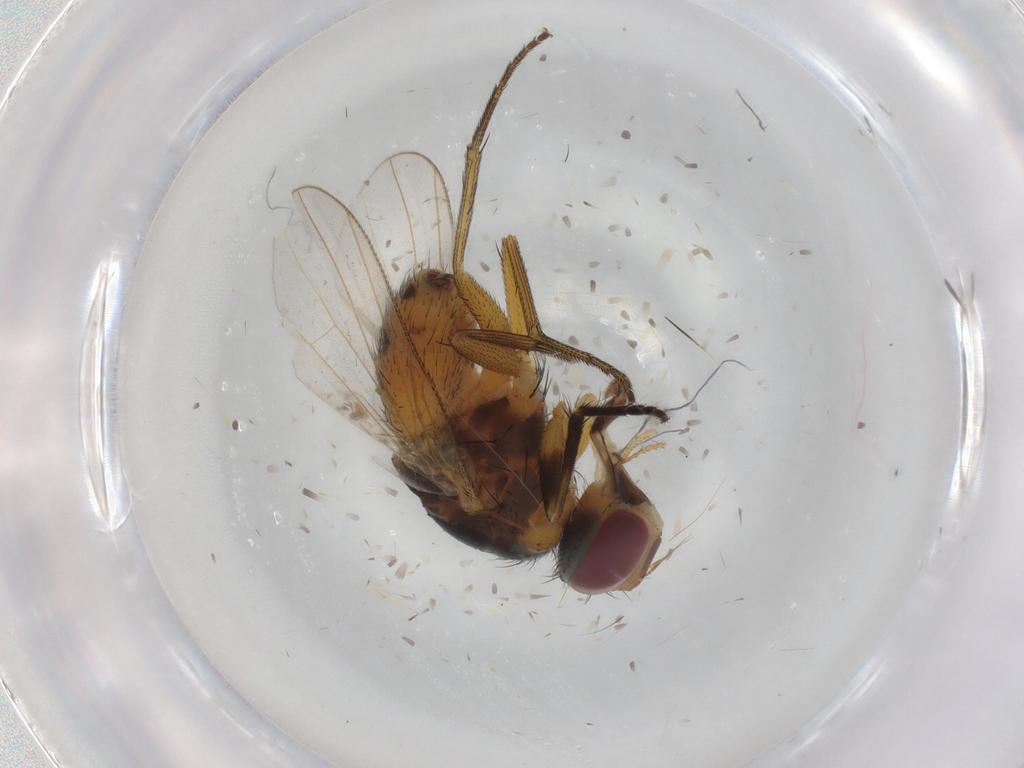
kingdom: Animalia
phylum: Arthropoda
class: Insecta
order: Diptera
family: Muscidae
